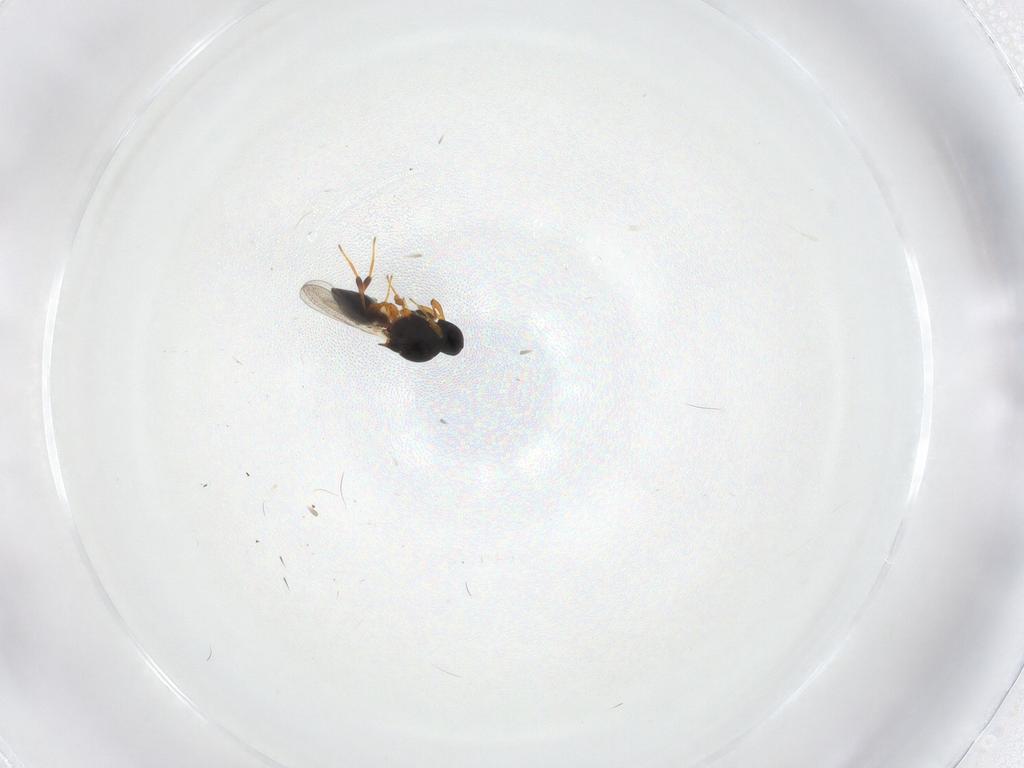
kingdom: Animalia
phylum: Arthropoda
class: Insecta
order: Hymenoptera
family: Platygastridae
